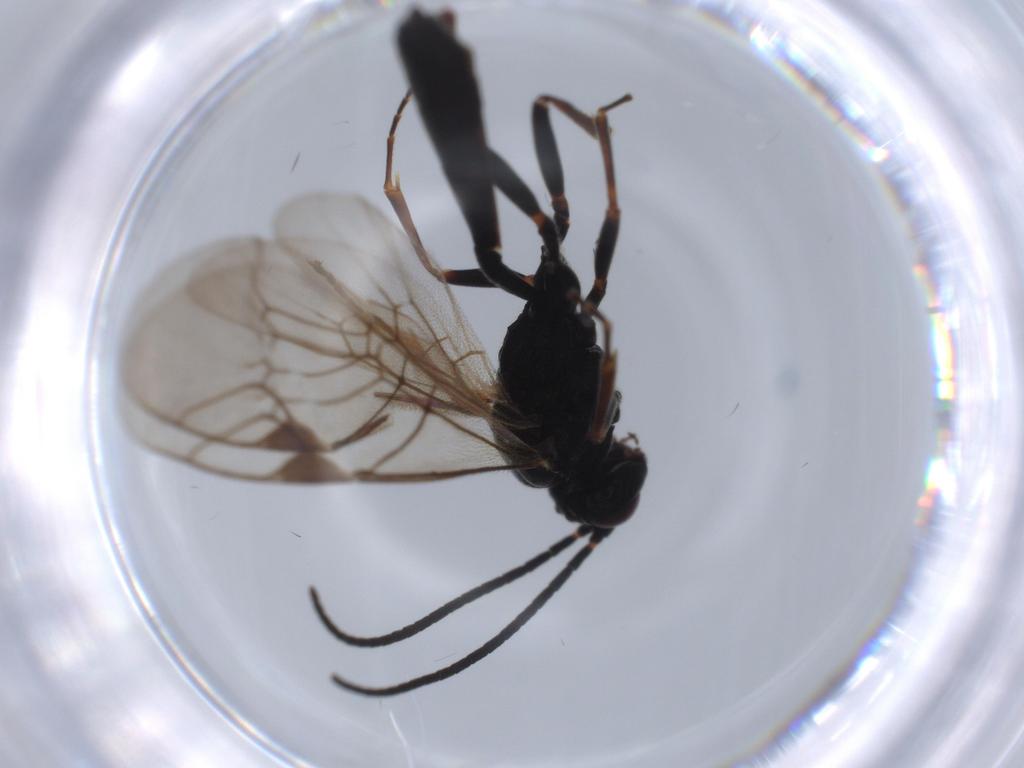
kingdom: Animalia
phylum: Arthropoda
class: Insecta
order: Hymenoptera
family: Ichneumonidae
